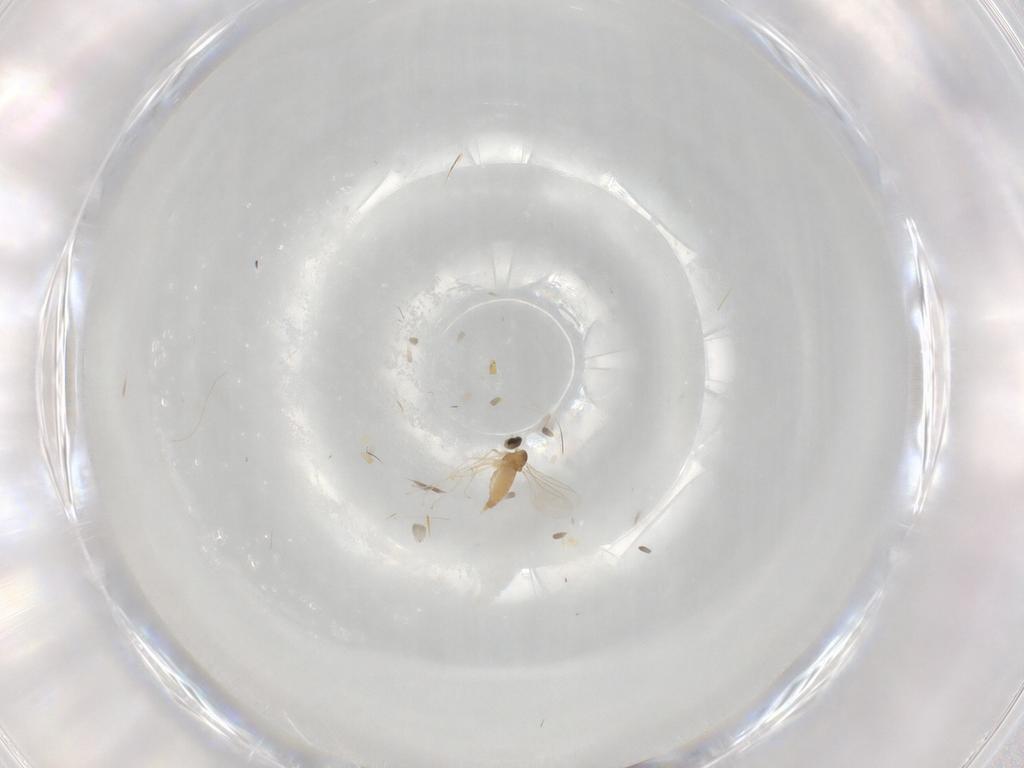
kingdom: Animalia
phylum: Arthropoda
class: Insecta
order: Diptera
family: Cecidomyiidae
